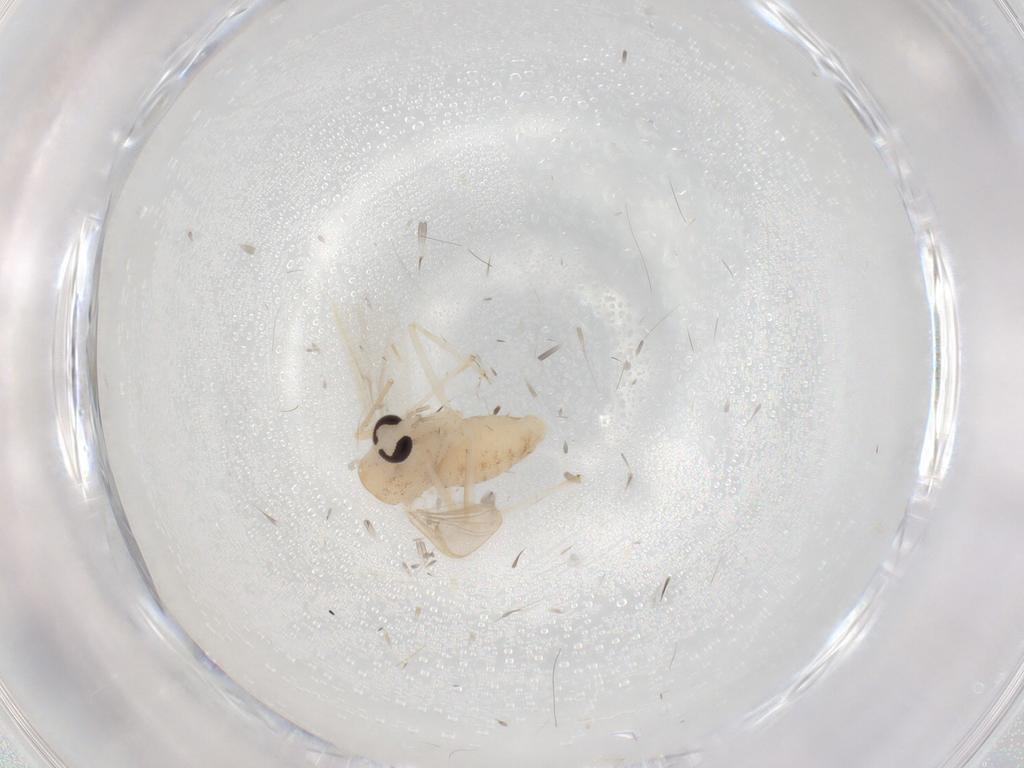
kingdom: Animalia
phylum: Arthropoda
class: Insecta
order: Diptera
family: Chironomidae
